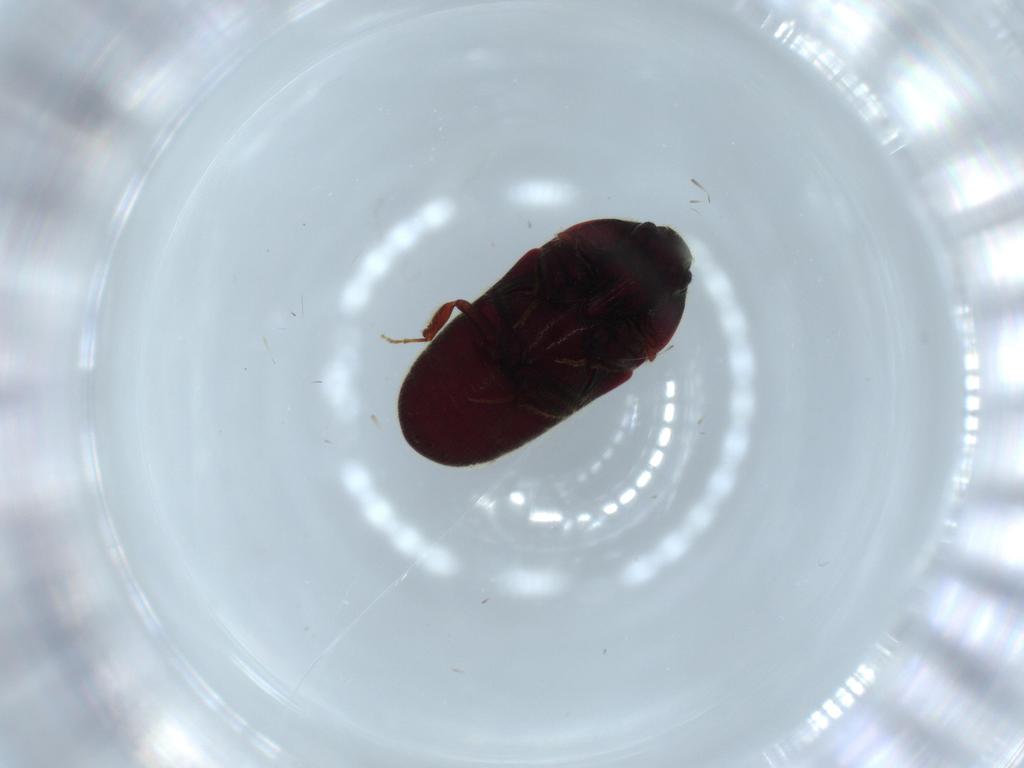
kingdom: Animalia
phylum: Arthropoda
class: Insecta
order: Coleoptera
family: Throscidae
